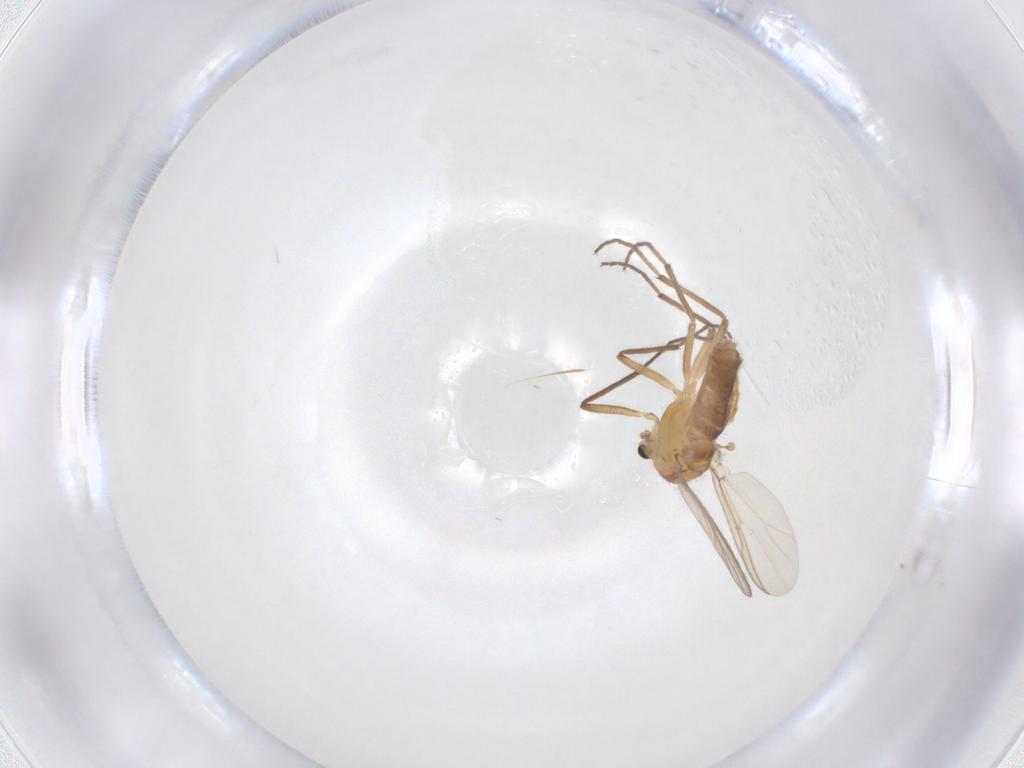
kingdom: Animalia
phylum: Arthropoda
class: Insecta
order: Diptera
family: Chironomidae
